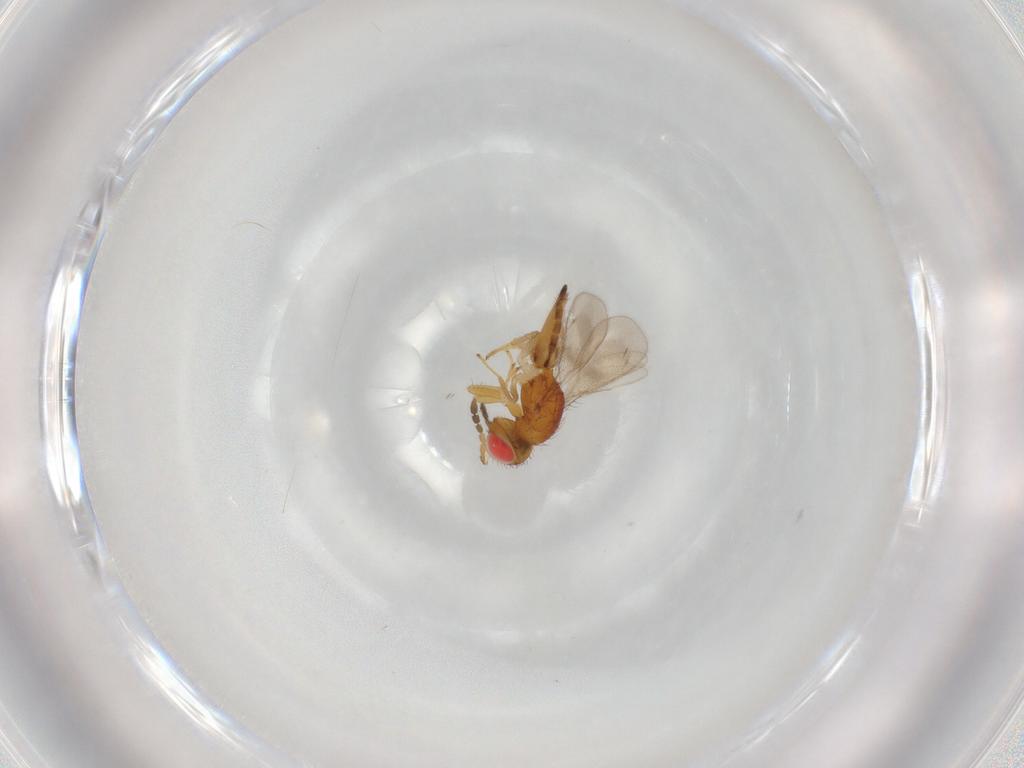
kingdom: Animalia
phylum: Arthropoda
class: Insecta
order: Hymenoptera
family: Eulophidae
